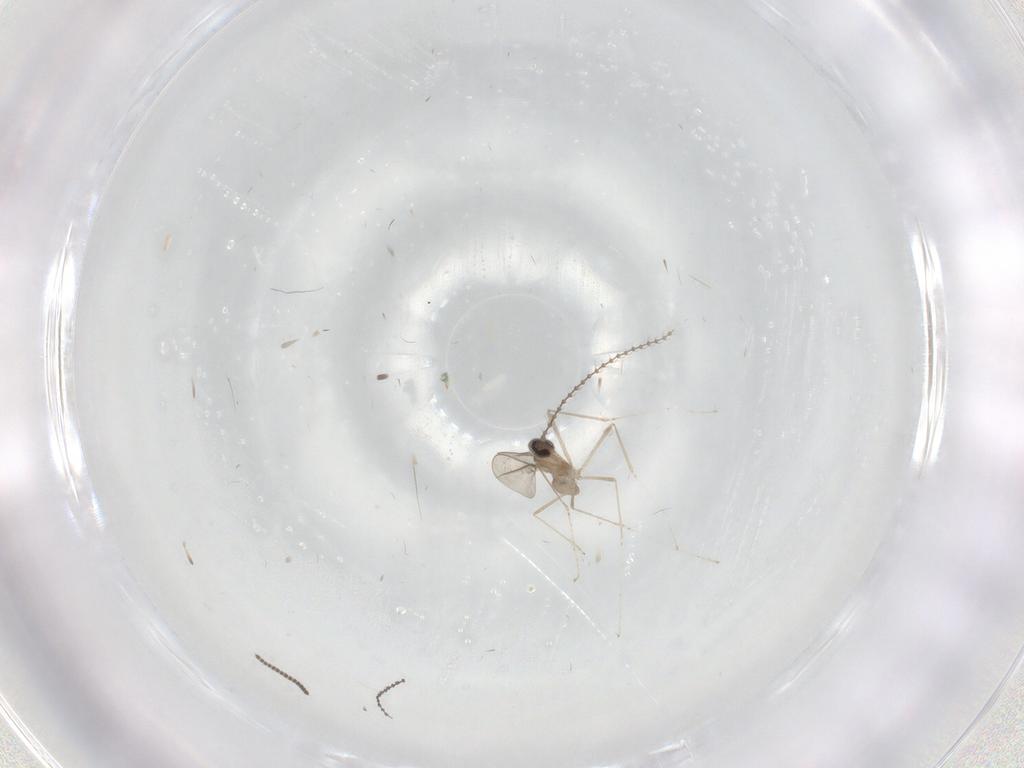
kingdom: Animalia
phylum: Arthropoda
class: Insecta
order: Diptera
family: Cecidomyiidae
